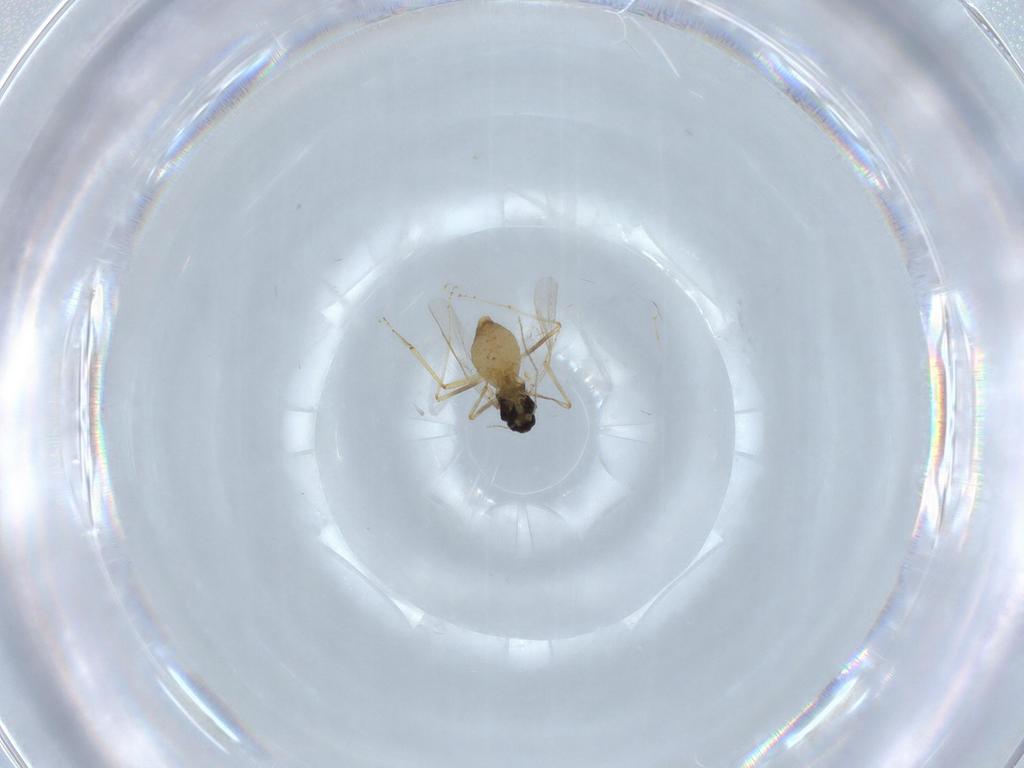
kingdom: Animalia
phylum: Arthropoda
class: Insecta
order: Diptera
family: Ceratopogonidae
